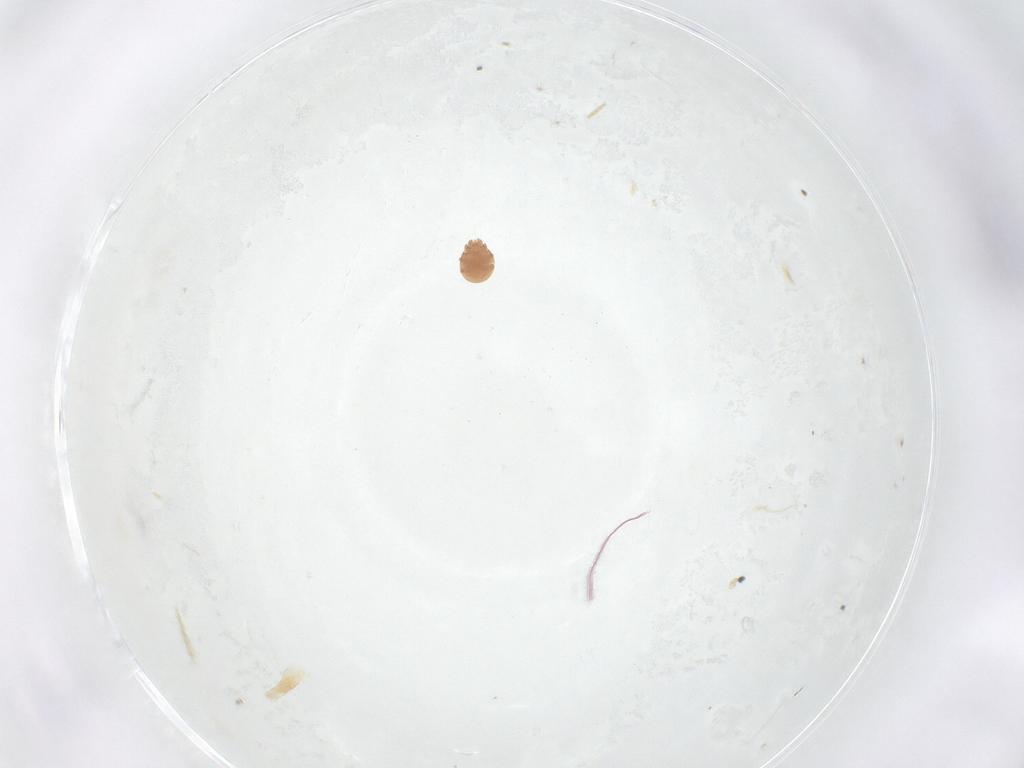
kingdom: Animalia
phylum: Arthropoda
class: Arachnida
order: Mesostigmata
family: Trematuridae
